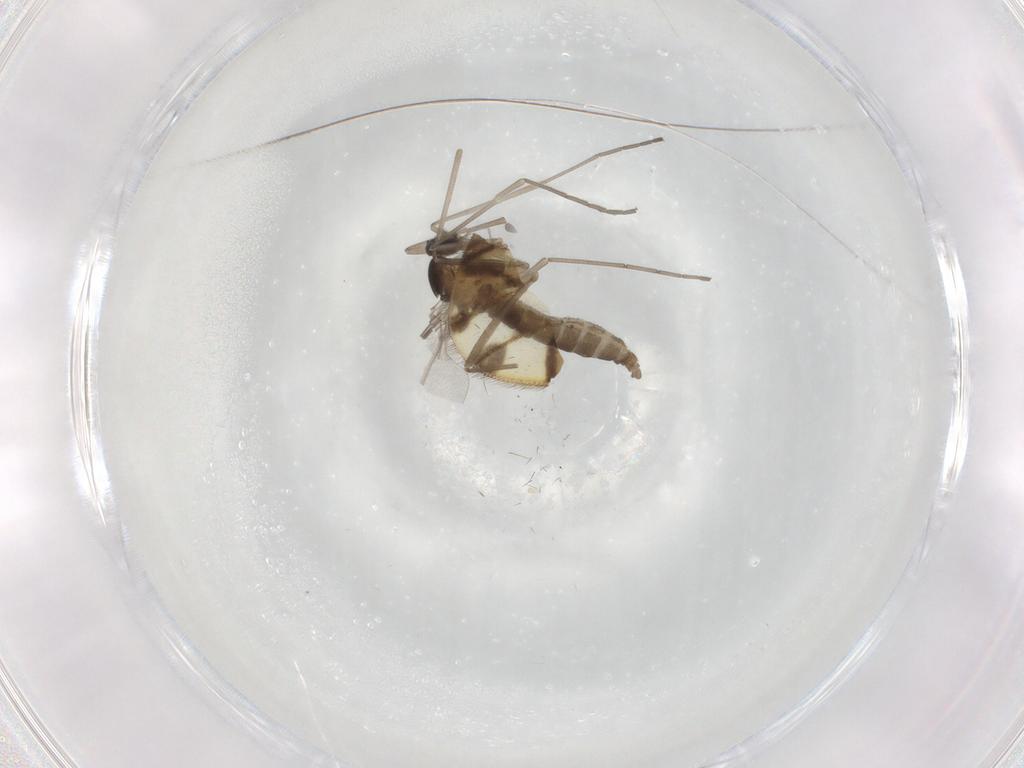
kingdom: Animalia
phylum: Arthropoda
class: Insecta
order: Diptera
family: Cecidomyiidae
